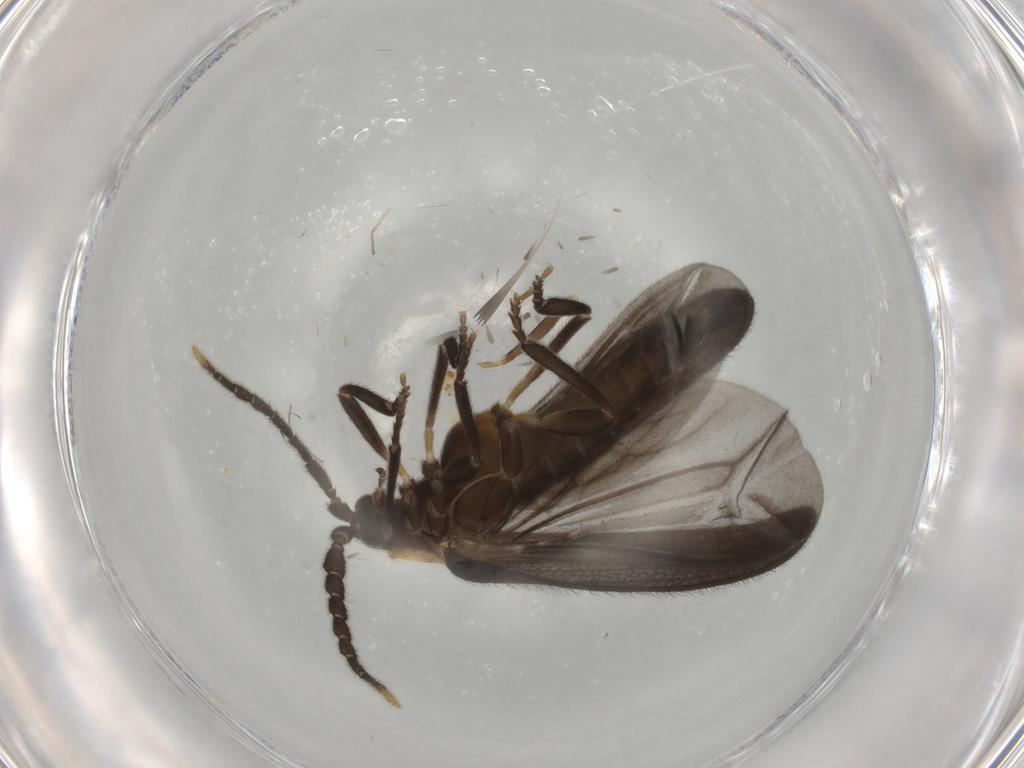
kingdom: Animalia
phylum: Arthropoda
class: Insecta
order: Coleoptera
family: Lycidae
